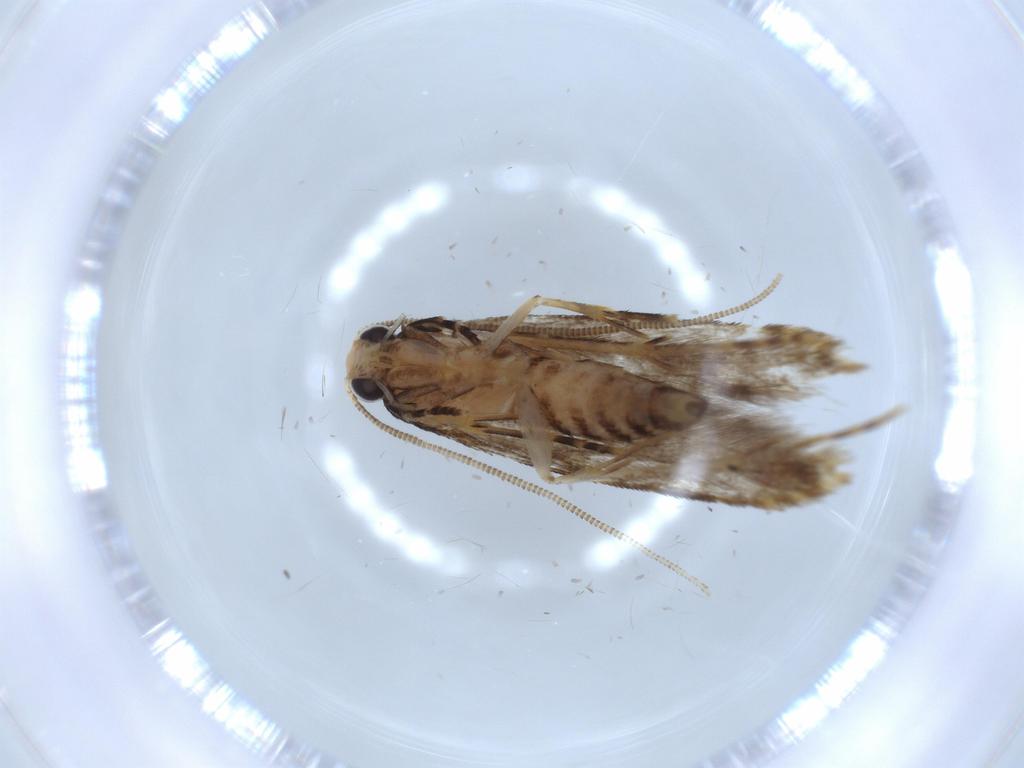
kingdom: Animalia
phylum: Arthropoda
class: Insecta
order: Lepidoptera
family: Tineidae
